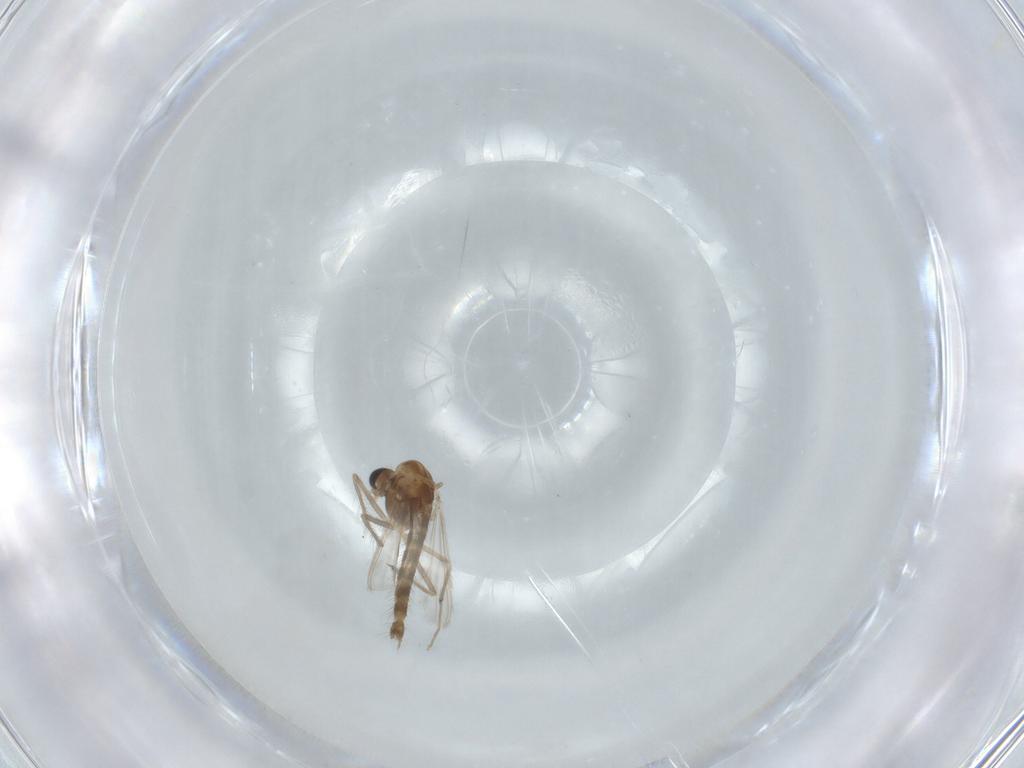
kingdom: Animalia
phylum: Arthropoda
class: Insecta
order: Diptera
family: Chironomidae
